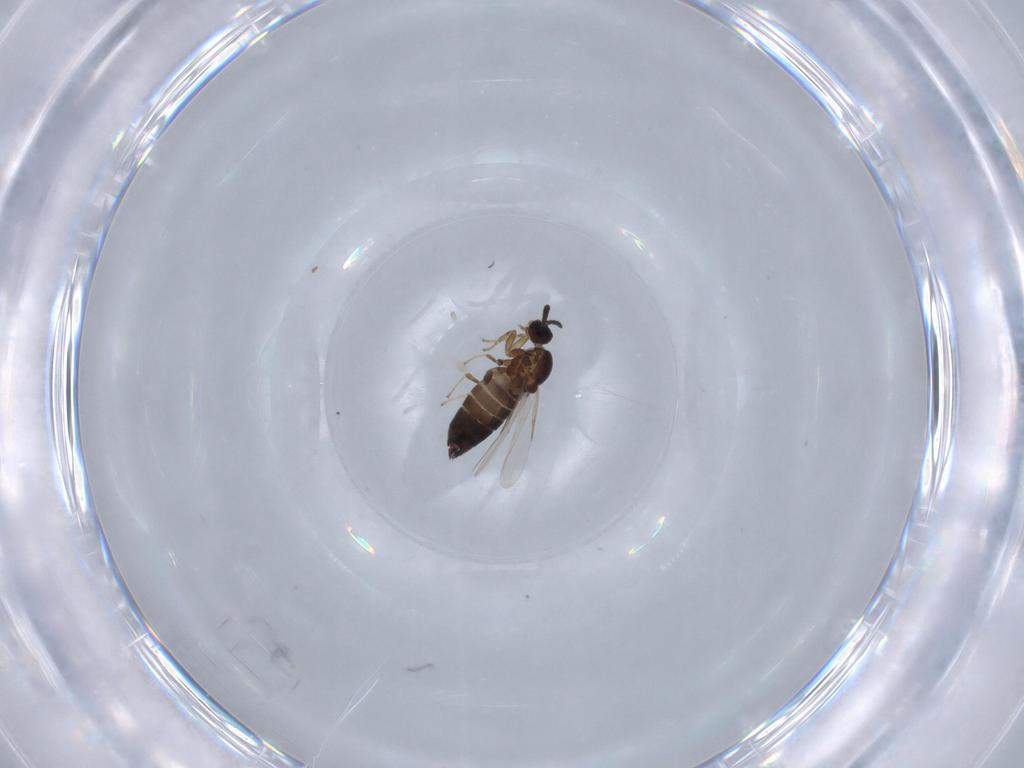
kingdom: Animalia
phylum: Arthropoda
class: Insecta
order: Diptera
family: Scatopsidae
